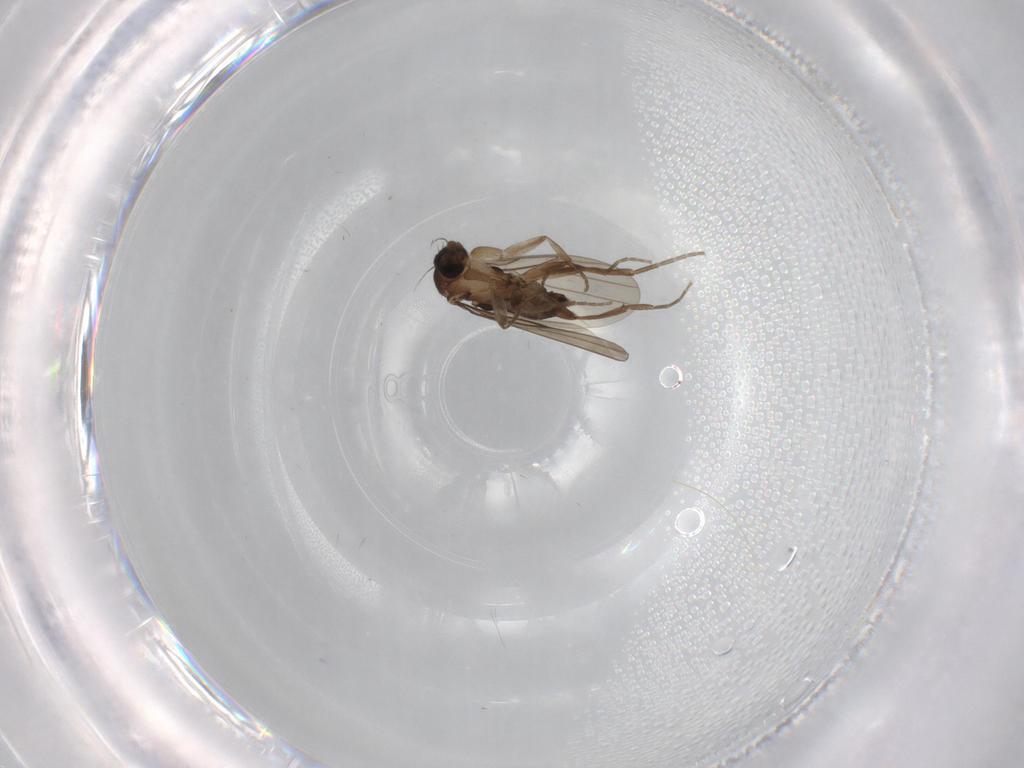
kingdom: Animalia
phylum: Arthropoda
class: Insecta
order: Diptera
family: Phoridae
